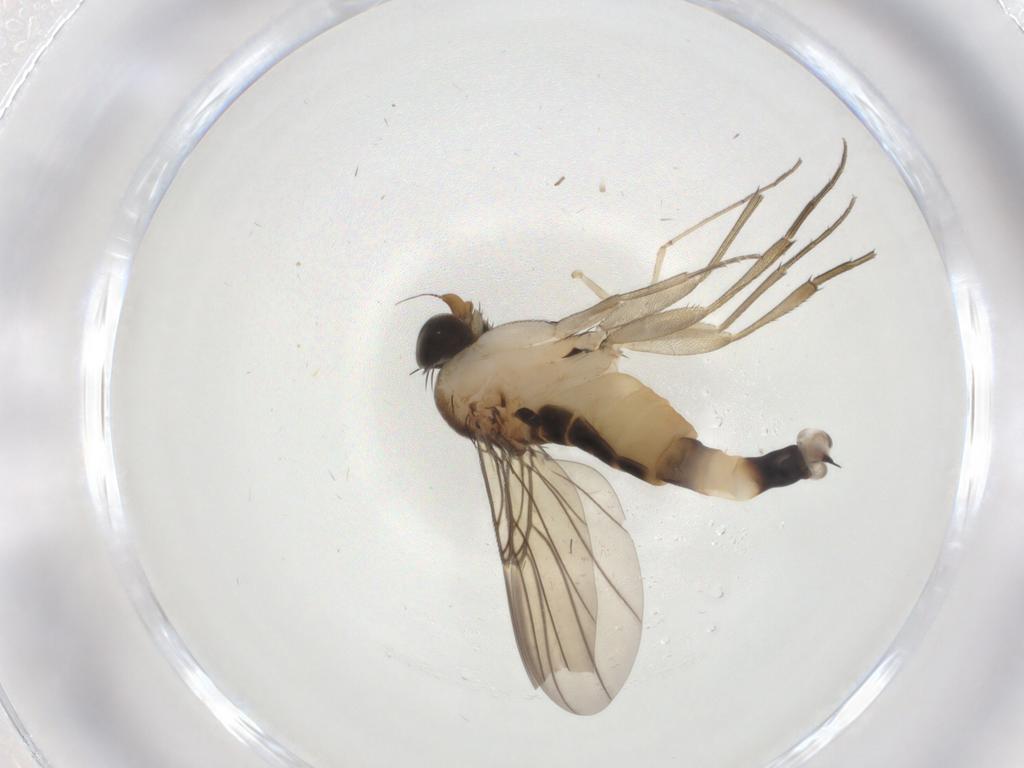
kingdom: Animalia
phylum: Arthropoda
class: Insecta
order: Diptera
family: Phoridae
